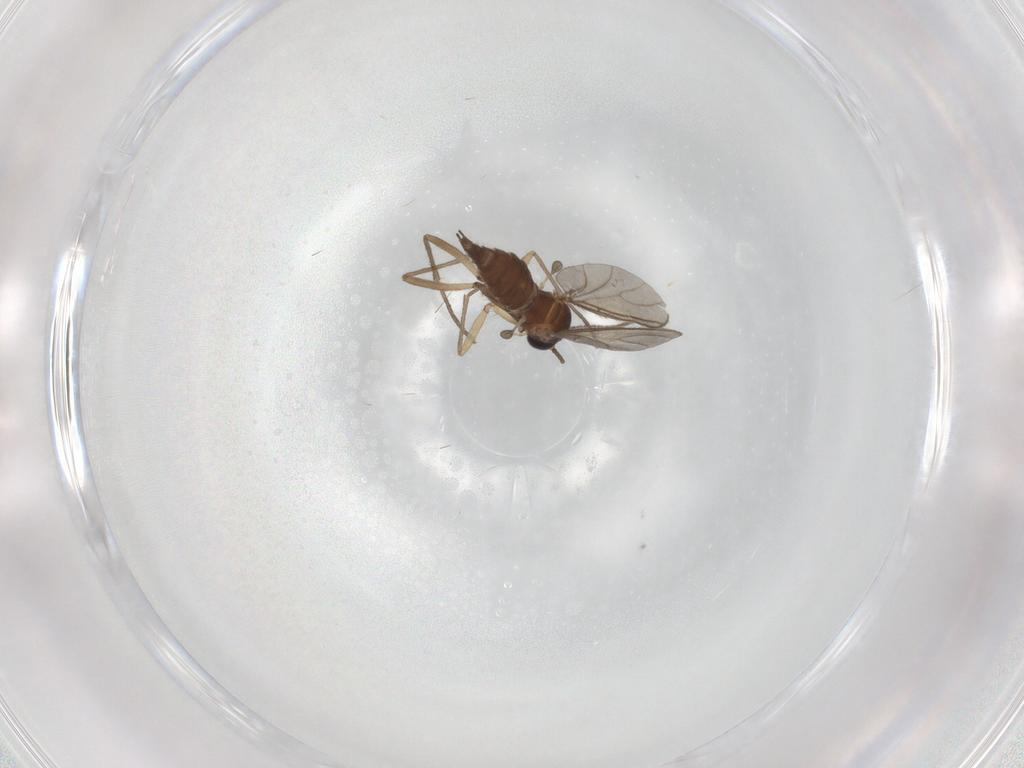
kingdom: Animalia
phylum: Arthropoda
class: Insecta
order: Diptera
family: Sciaridae
